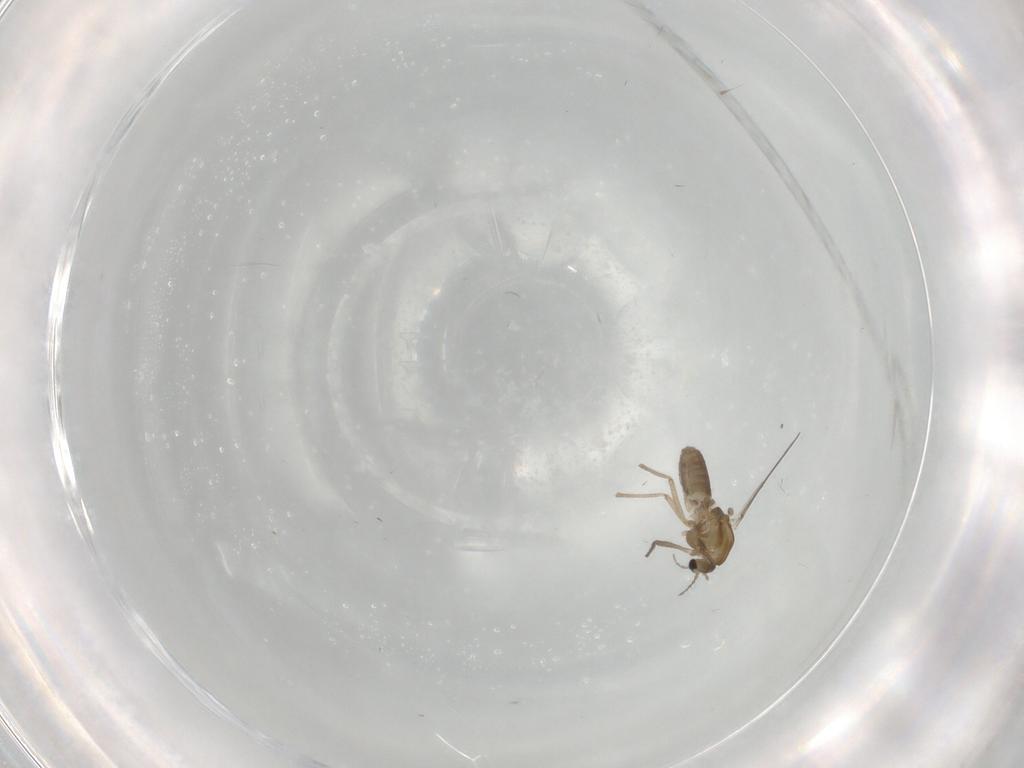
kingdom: Animalia
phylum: Arthropoda
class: Insecta
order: Diptera
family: Chironomidae
